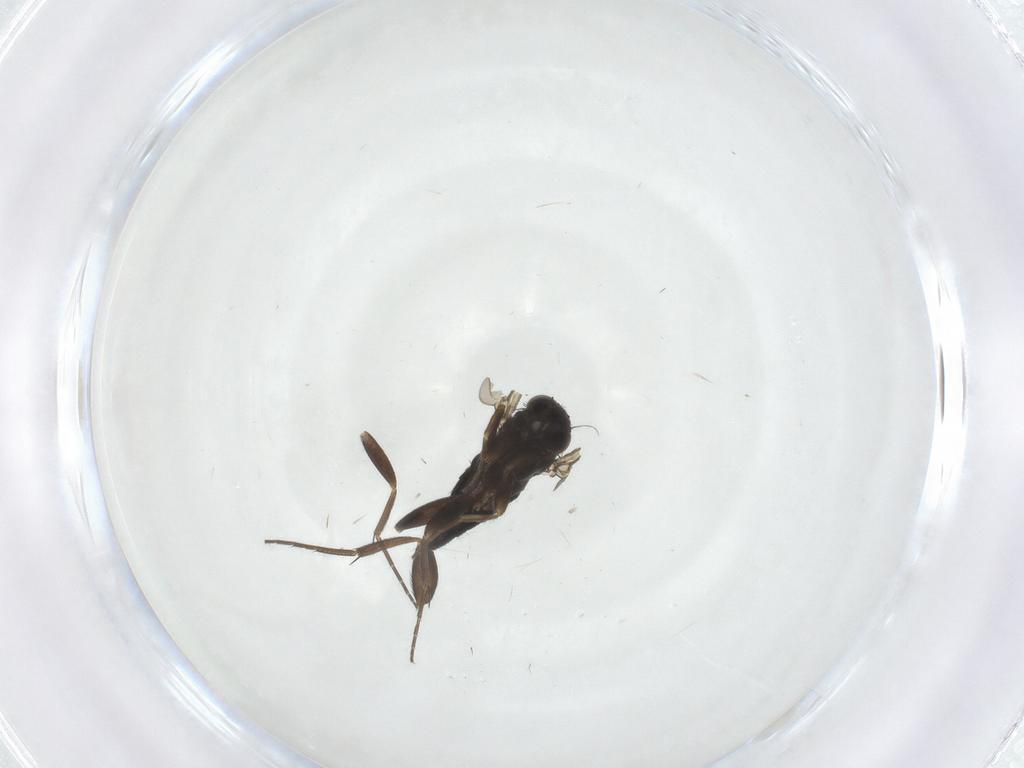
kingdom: Animalia
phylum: Arthropoda
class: Insecta
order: Diptera
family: Phoridae
